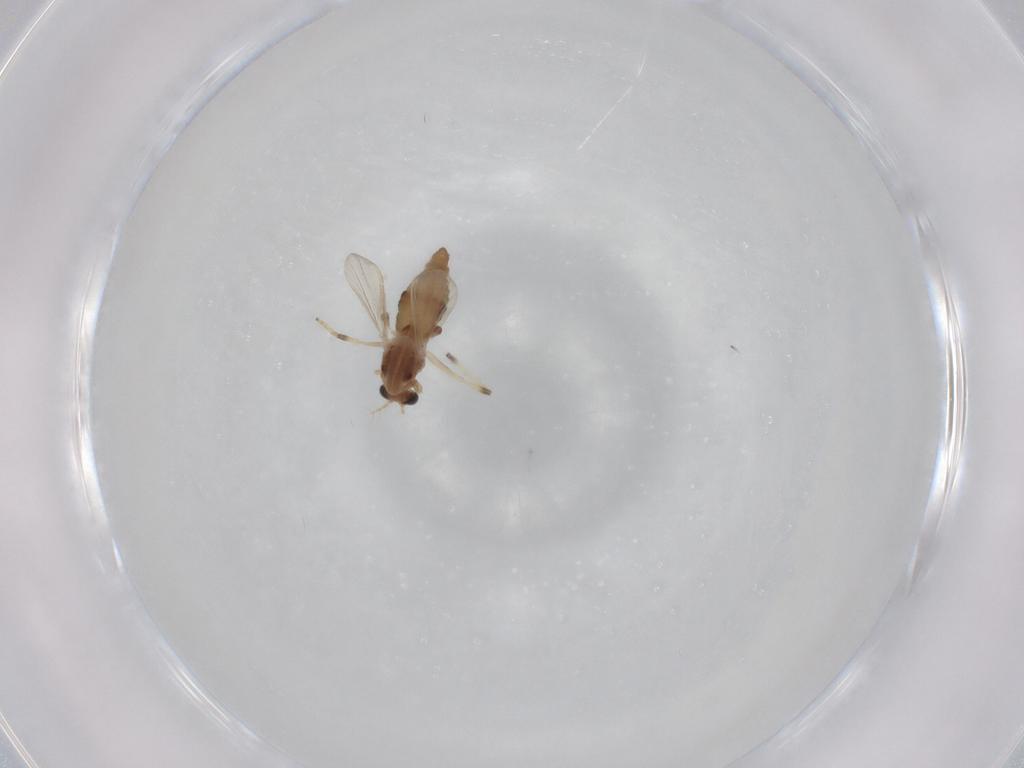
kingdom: Animalia
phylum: Arthropoda
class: Insecta
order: Diptera
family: Chironomidae
